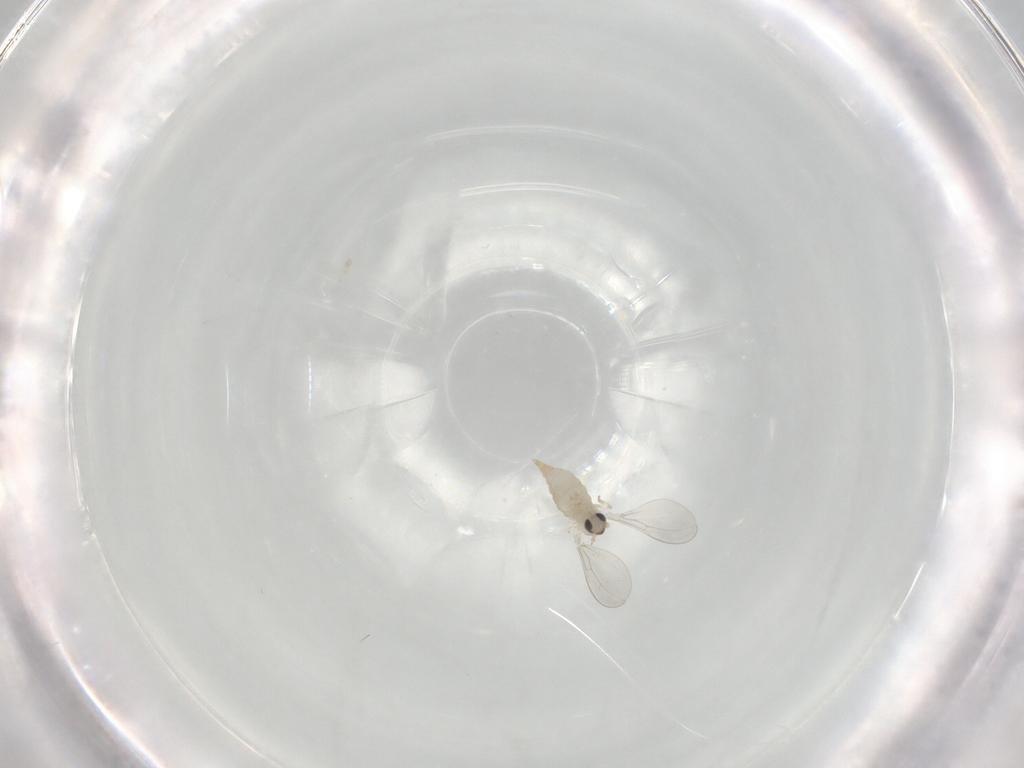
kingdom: Animalia
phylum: Arthropoda
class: Insecta
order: Diptera
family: Cecidomyiidae
